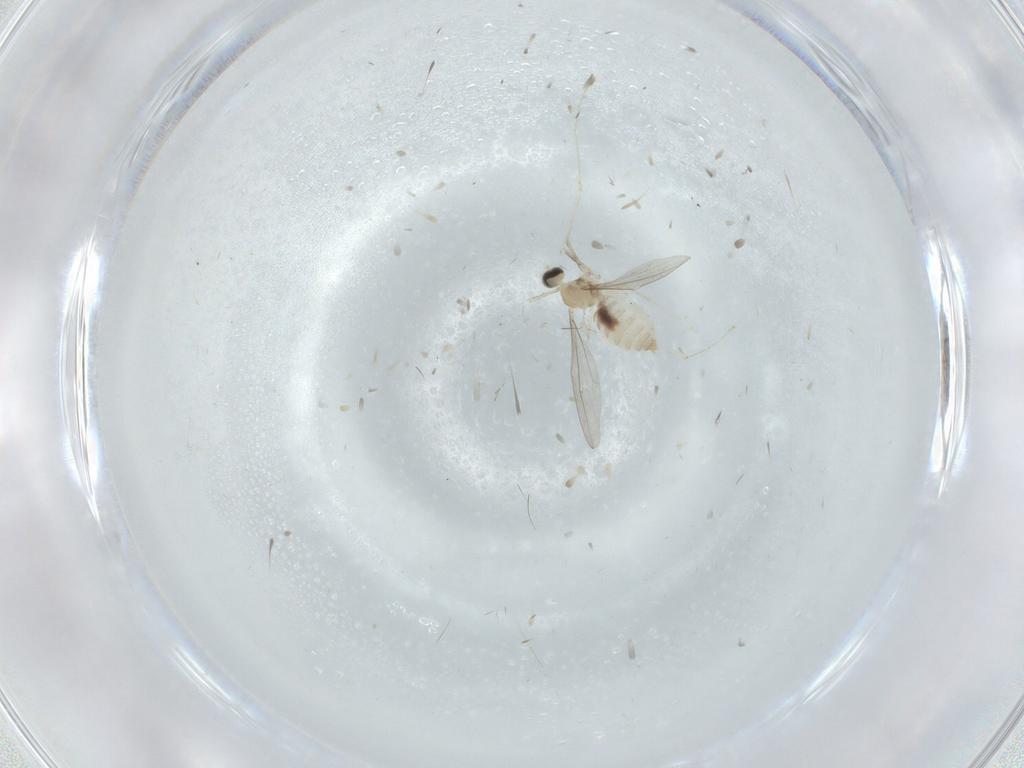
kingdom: Animalia
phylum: Arthropoda
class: Insecta
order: Diptera
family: Cecidomyiidae
